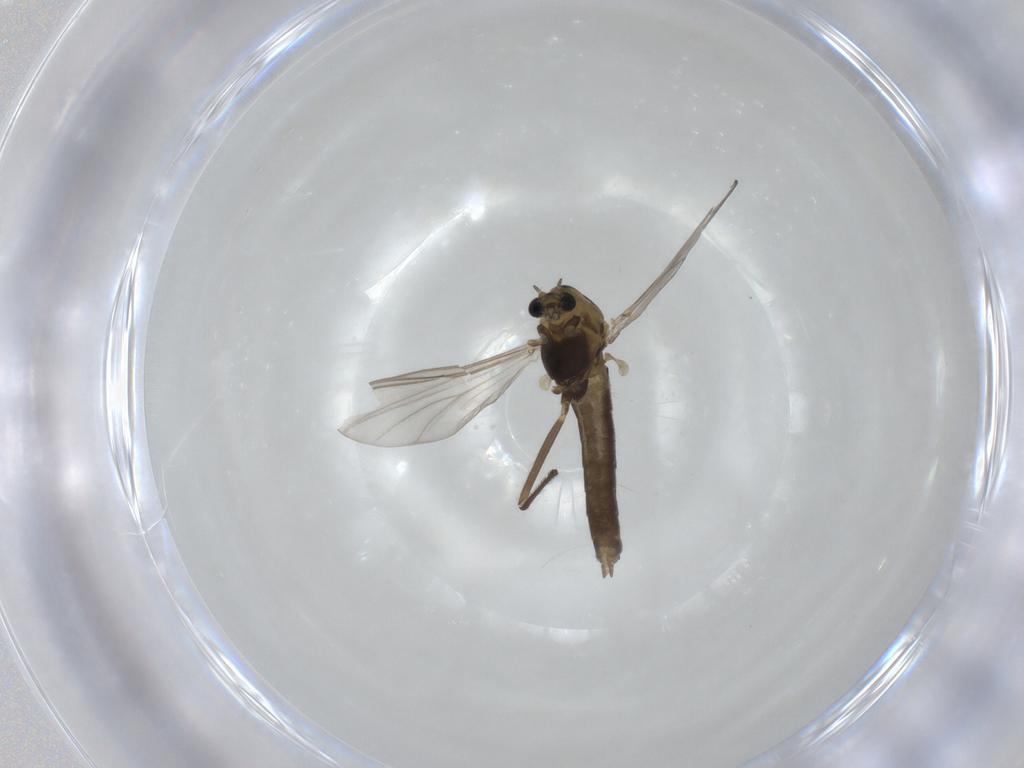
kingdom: Animalia
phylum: Arthropoda
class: Insecta
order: Diptera
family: Chironomidae
